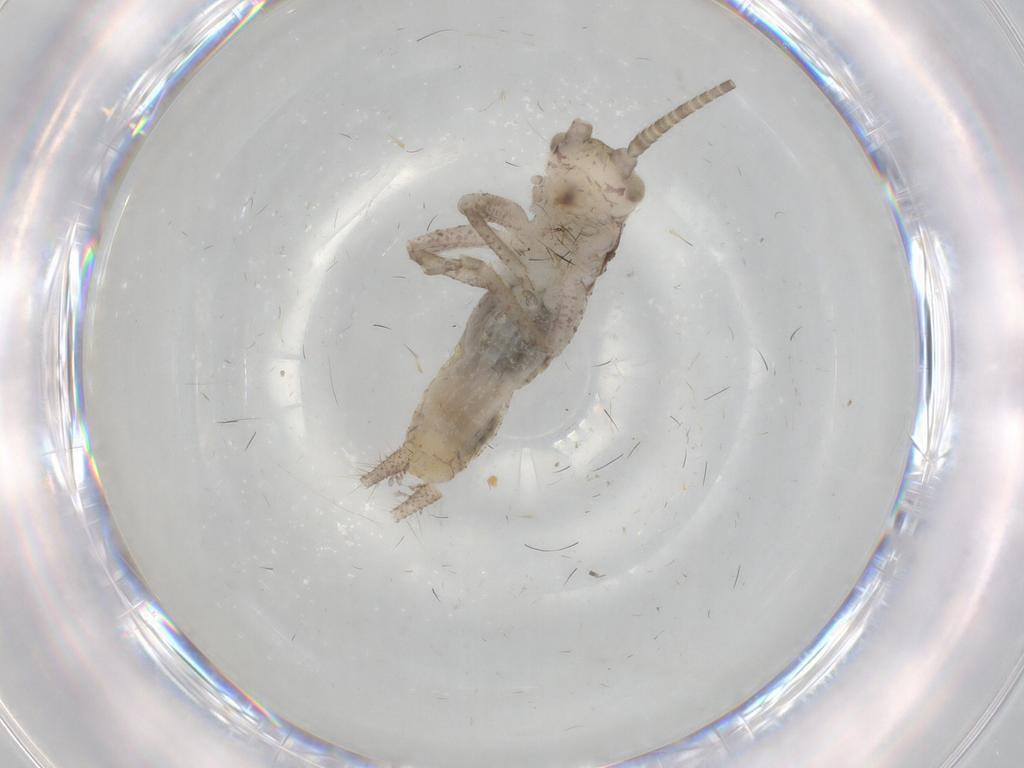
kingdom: Animalia
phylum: Arthropoda
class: Insecta
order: Orthoptera
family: Gryllidae
